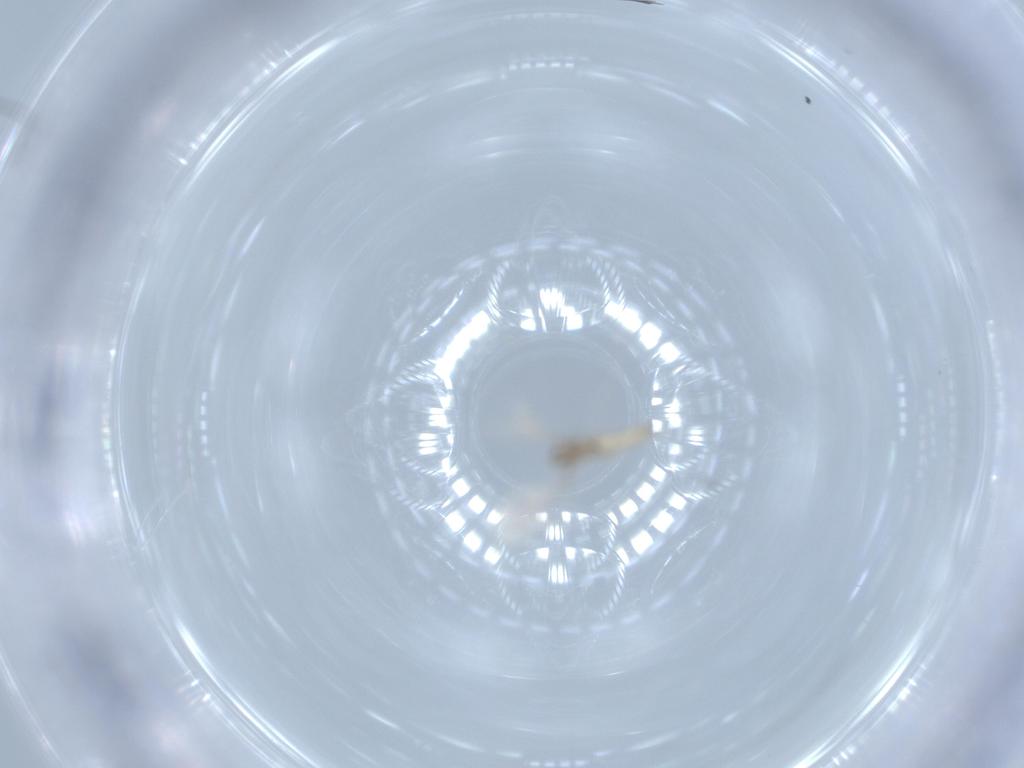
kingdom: Animalia
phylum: Arthropoda
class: Insecta
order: Diptera
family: Cecidomyiidae
